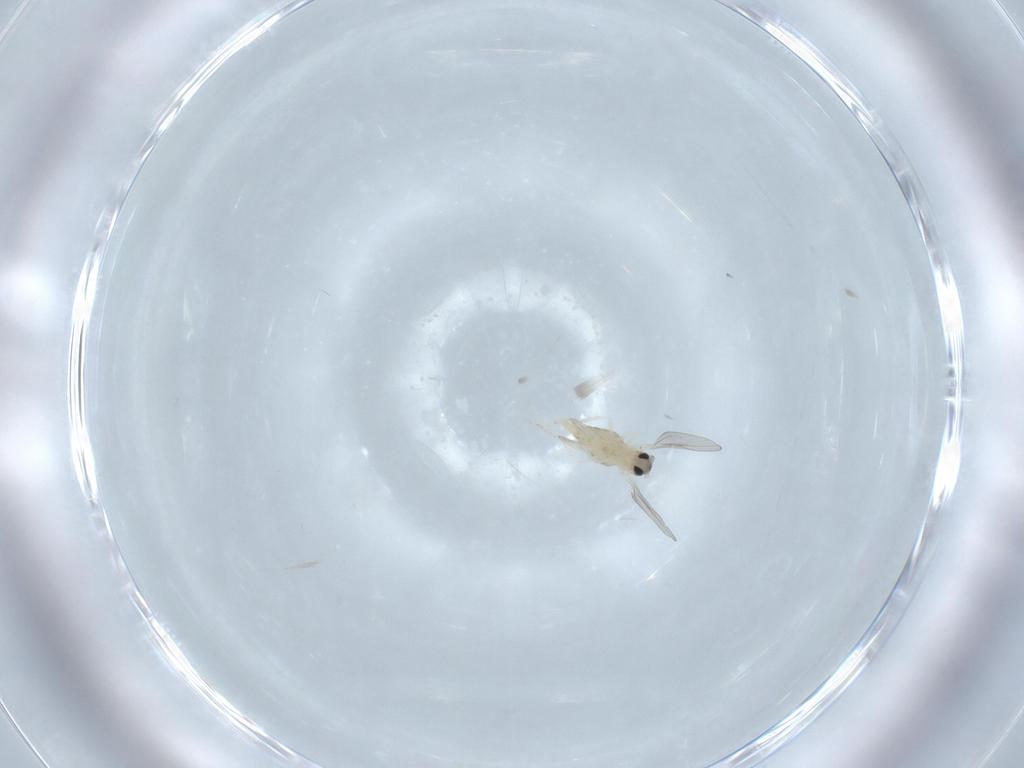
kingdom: Animalia
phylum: Arthropoda
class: Insecta
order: Diptera
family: Cecidomyiidae
